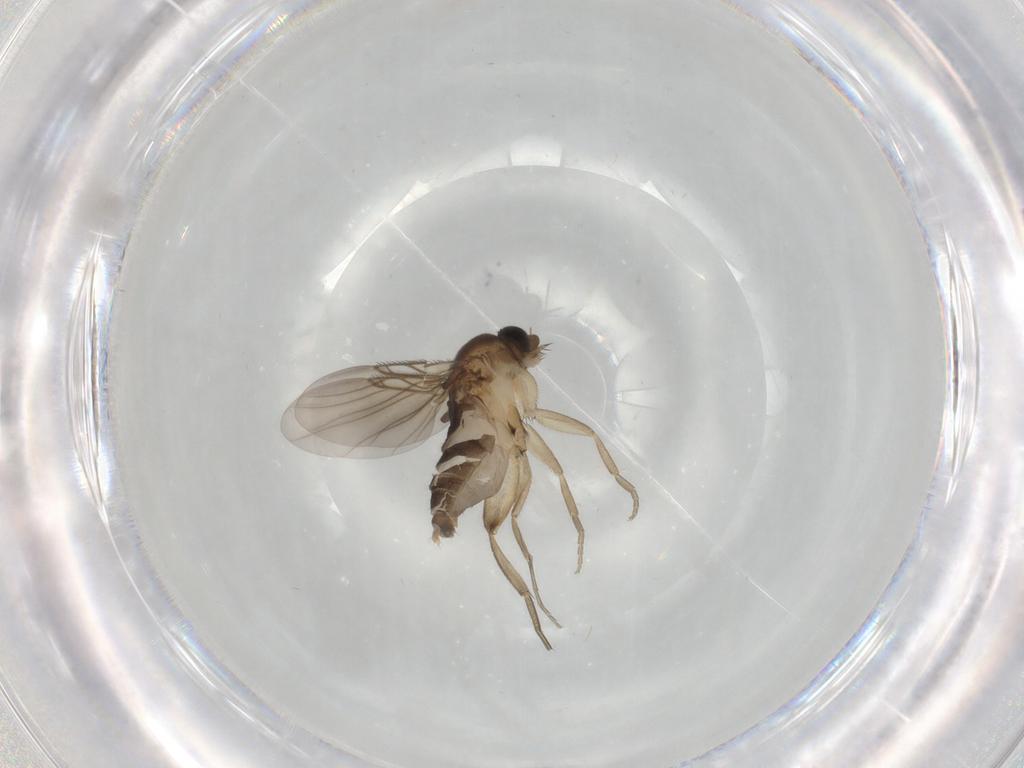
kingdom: Animalia
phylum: Arthropoda
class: Insecta
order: Diptera
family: Phoridae
